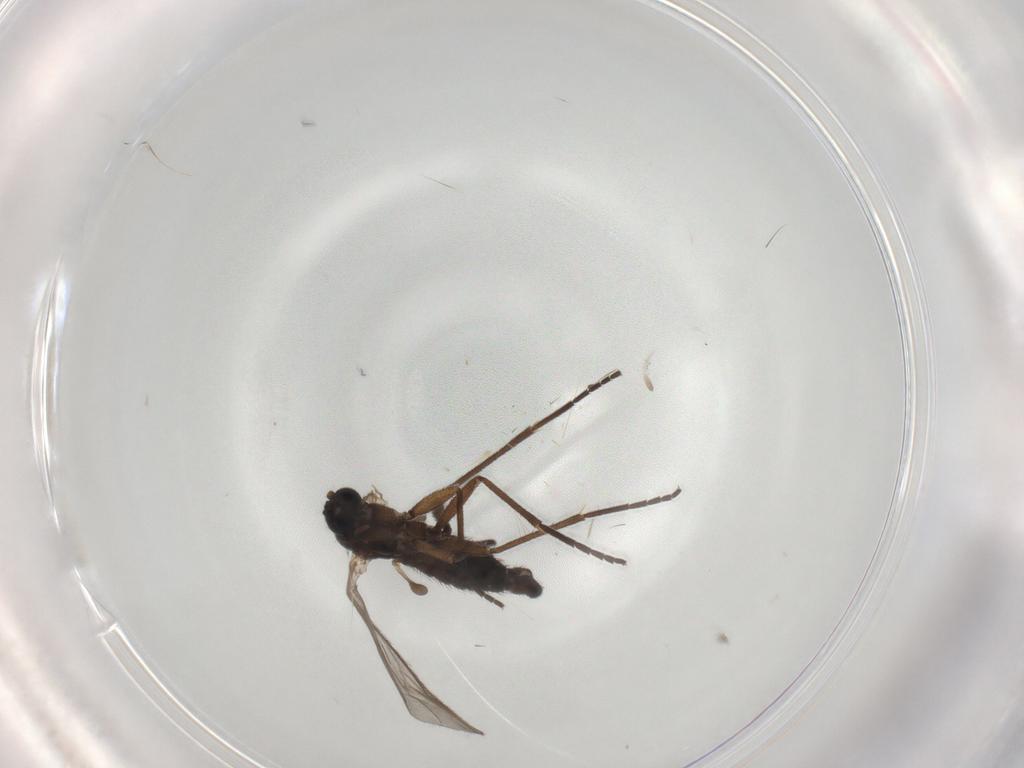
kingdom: Animalia
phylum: Arthropoda
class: Insecta
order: Diptera
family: Sciaridae
